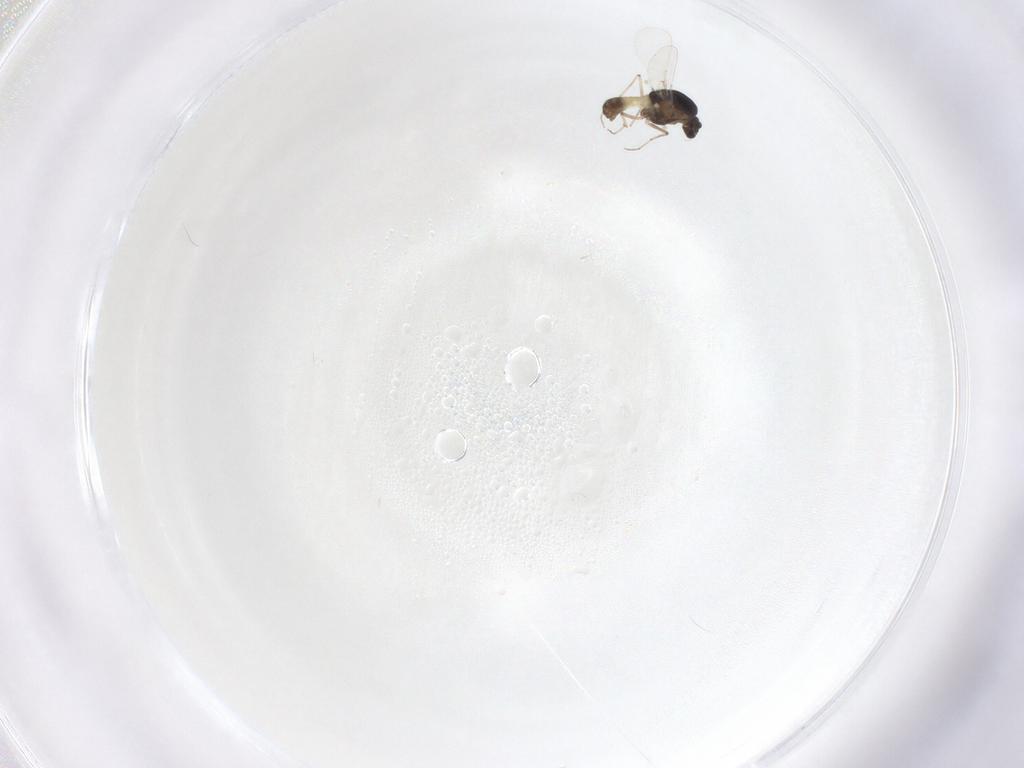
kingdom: Animalia
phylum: Arthropoda
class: Insecta
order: Diptera
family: Chironomidae
